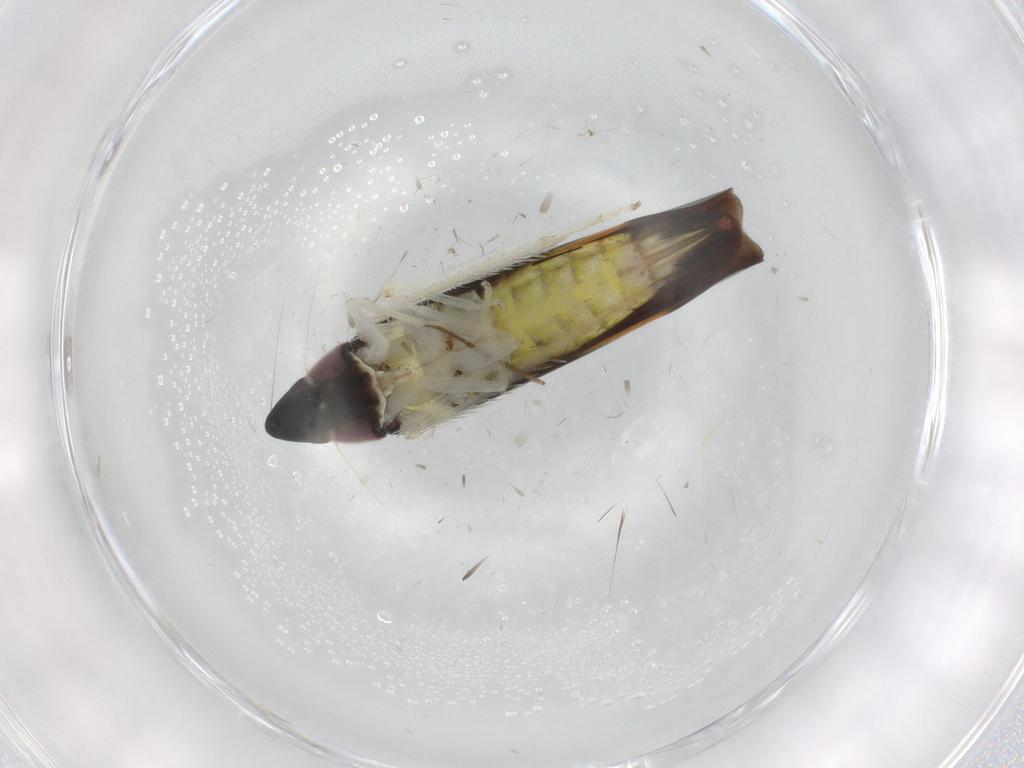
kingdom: Animalia
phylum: Arthropoda
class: Insecta
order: Hemiptera
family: Cicadellidae
